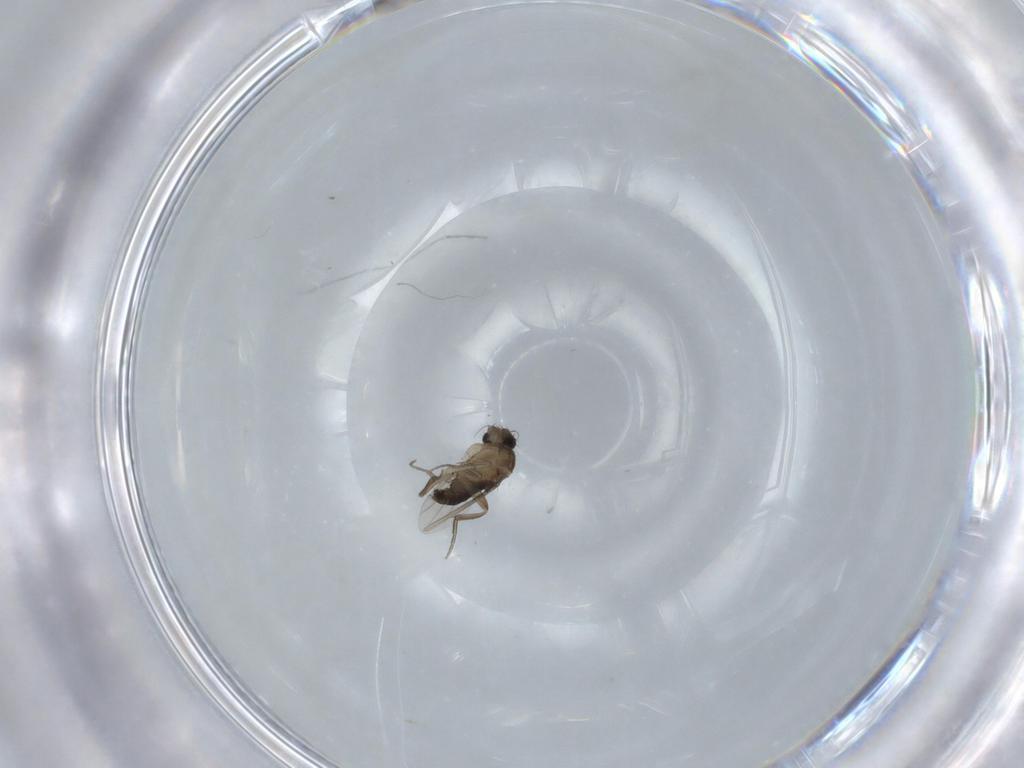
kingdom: Animalia
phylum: Arthropoda
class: Insecta
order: Diptera
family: Phoridae
